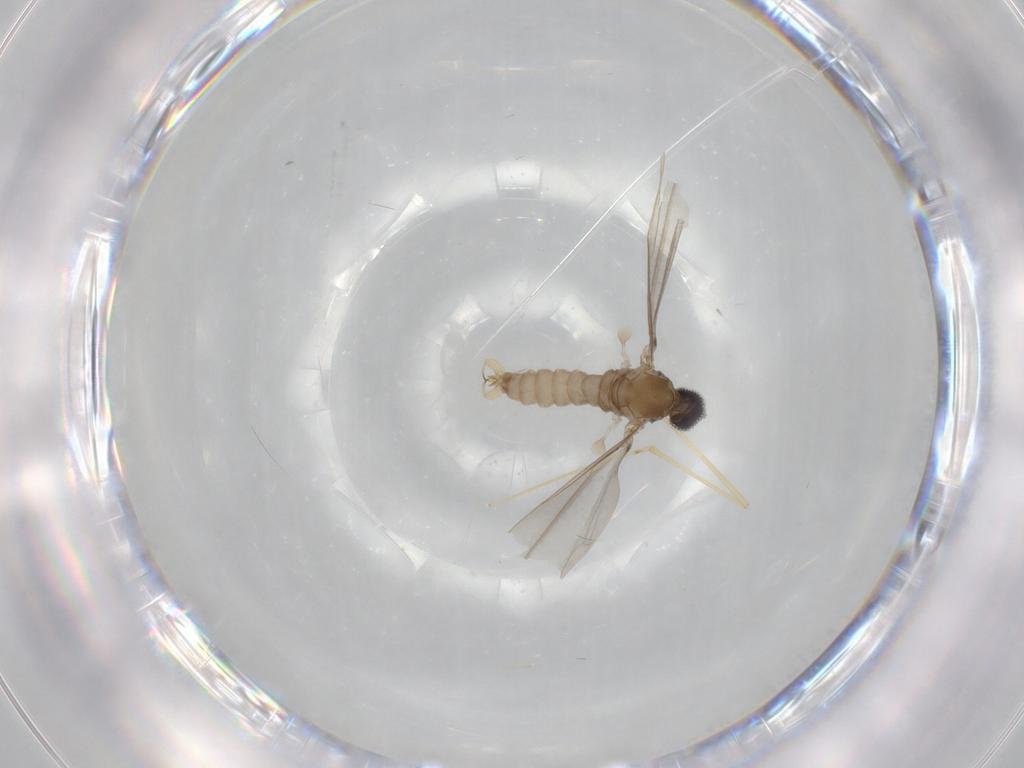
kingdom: Animalia
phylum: Arthropoda
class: Insecta
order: Diptera
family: Cecidomyiidae
